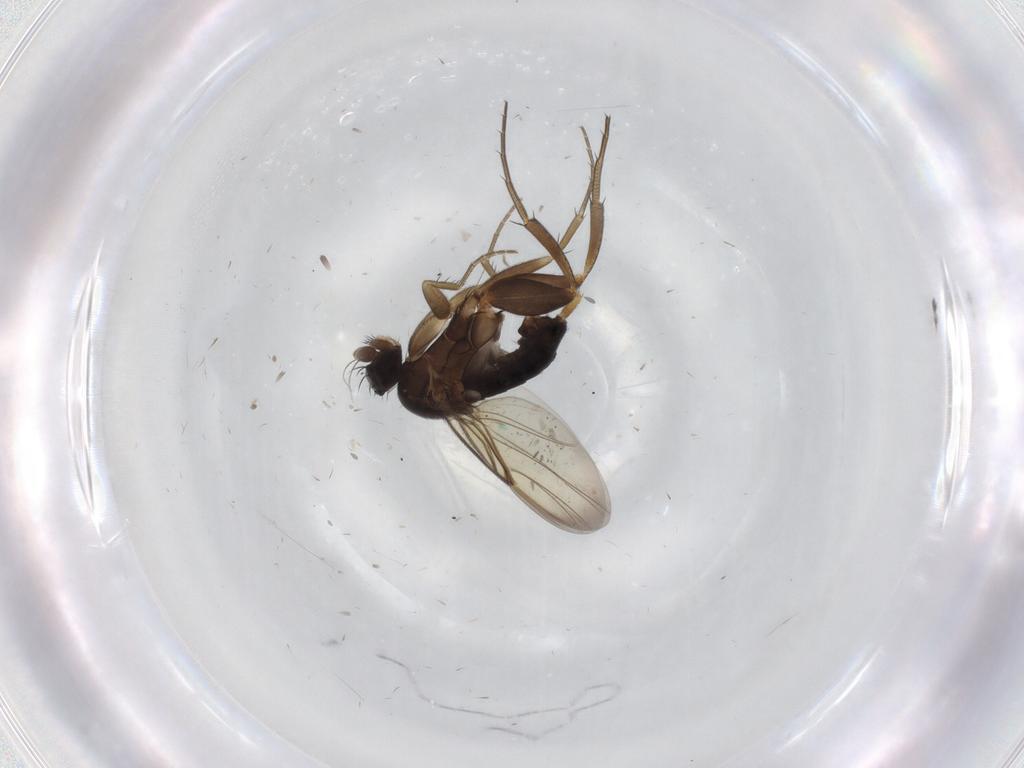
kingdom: Animalia
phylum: Arthropoda
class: Insecta
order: Diptera
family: Phoridae
